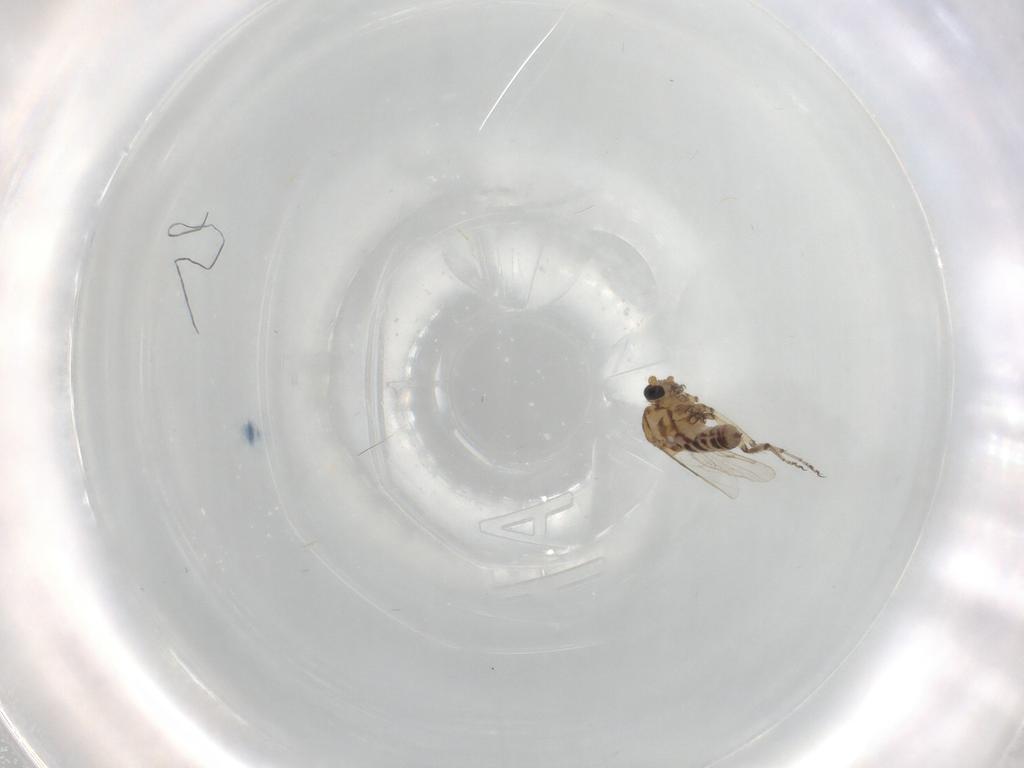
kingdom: Animalia
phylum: Arthropoda
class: Insecta
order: Diptera
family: Ceratopogonidae
